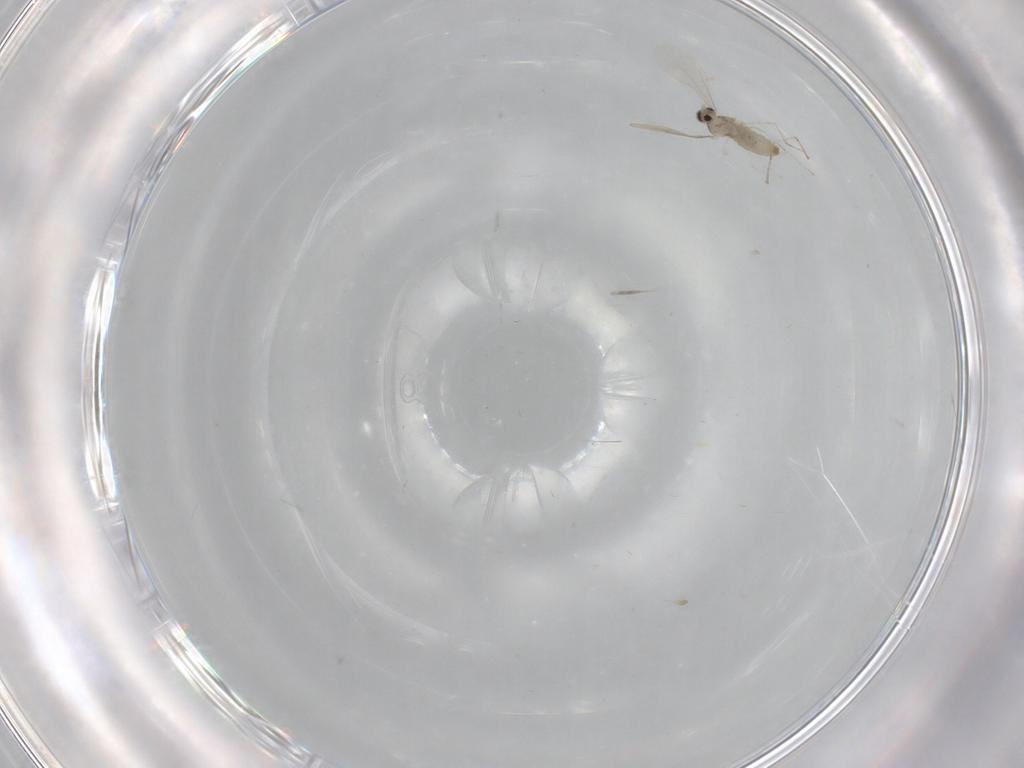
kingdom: Animalia
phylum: Arthropoda
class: Insecta
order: Diptera
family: Cecidomyiidae
